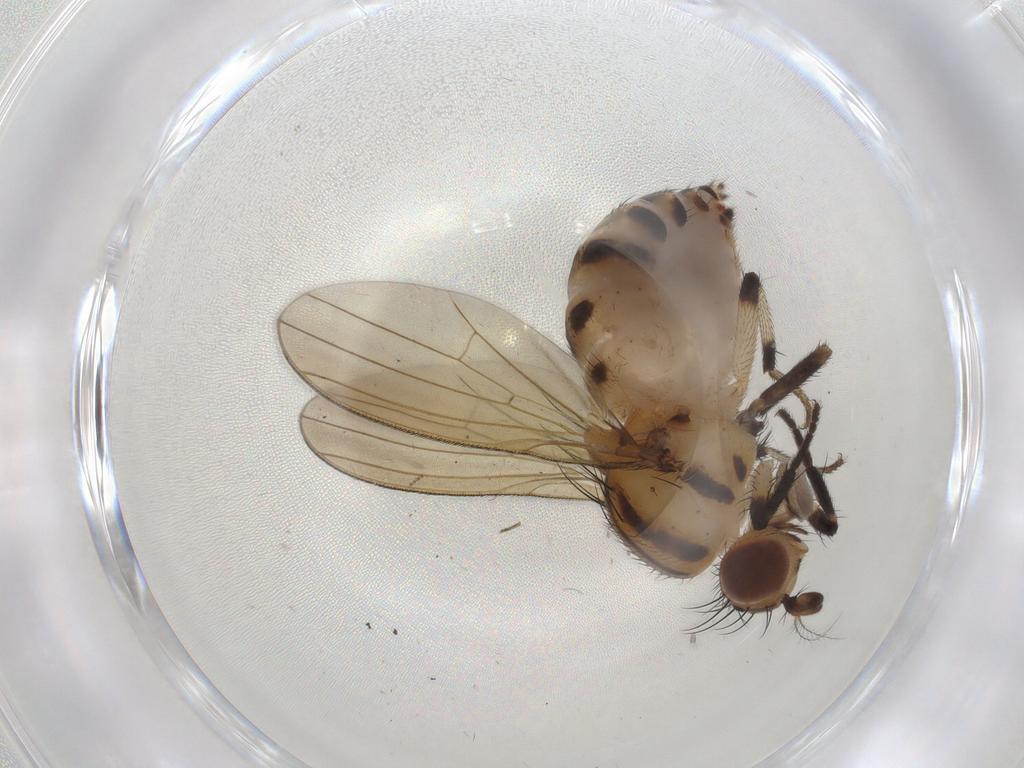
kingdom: Animalia
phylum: Arthropoda
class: Insecta
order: Diptera
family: Lauxaniidae
